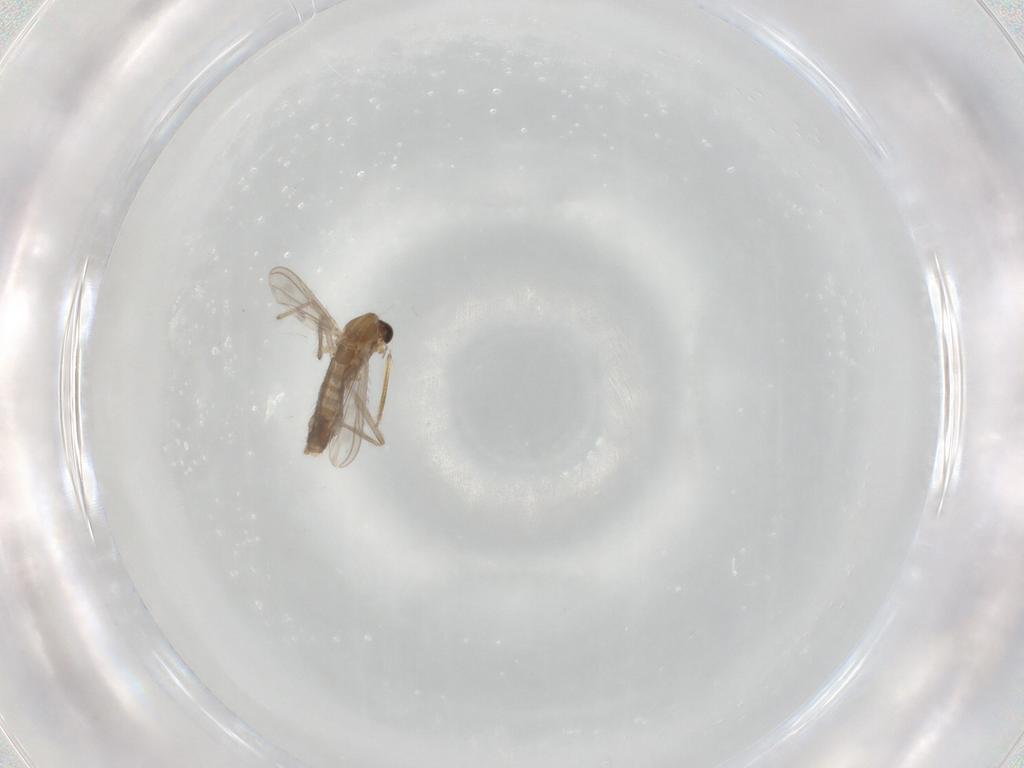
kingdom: Animalia
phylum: Arthropoda
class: Insecta
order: Diptera
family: Chironomidae
